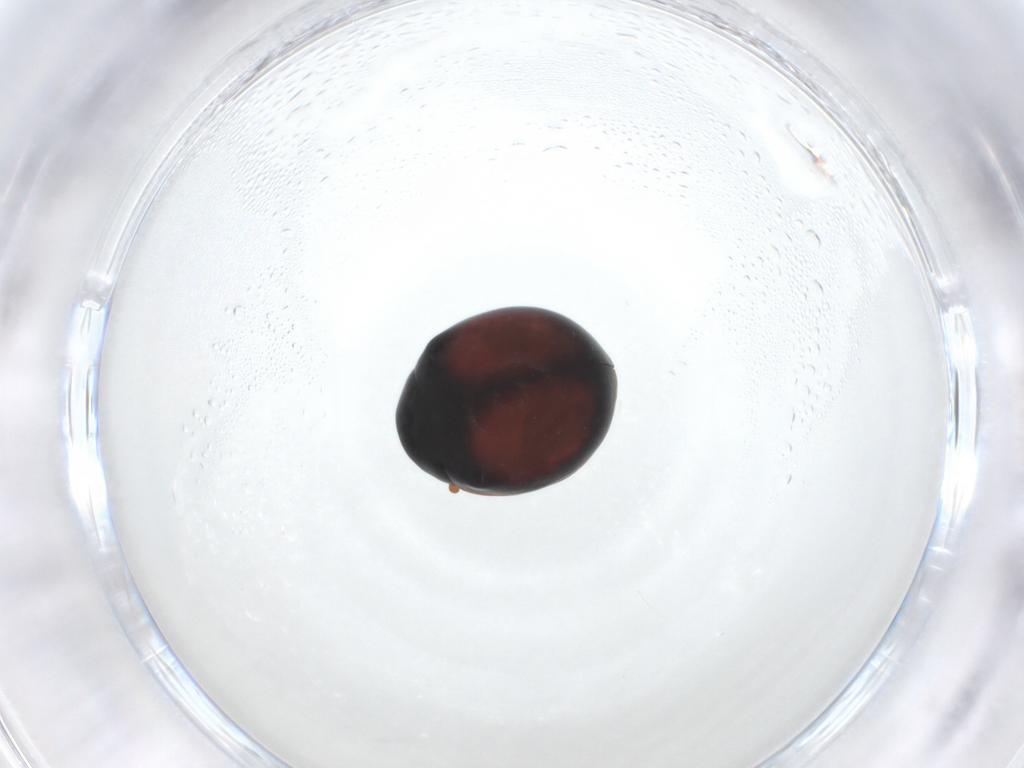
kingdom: Animalia
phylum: Arthropoda
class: Insecta
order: Coleoptera
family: Coccinellidae
